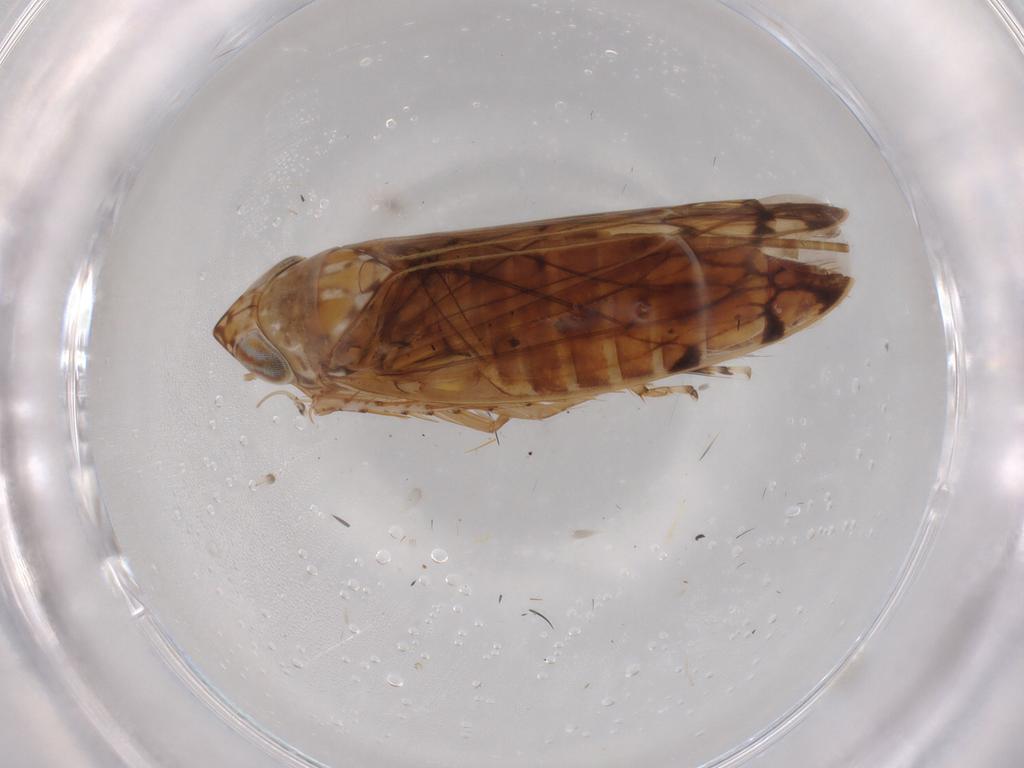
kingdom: Animalia
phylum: Arthropoda
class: Insecta
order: Hemiptera
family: Cicadellidae
